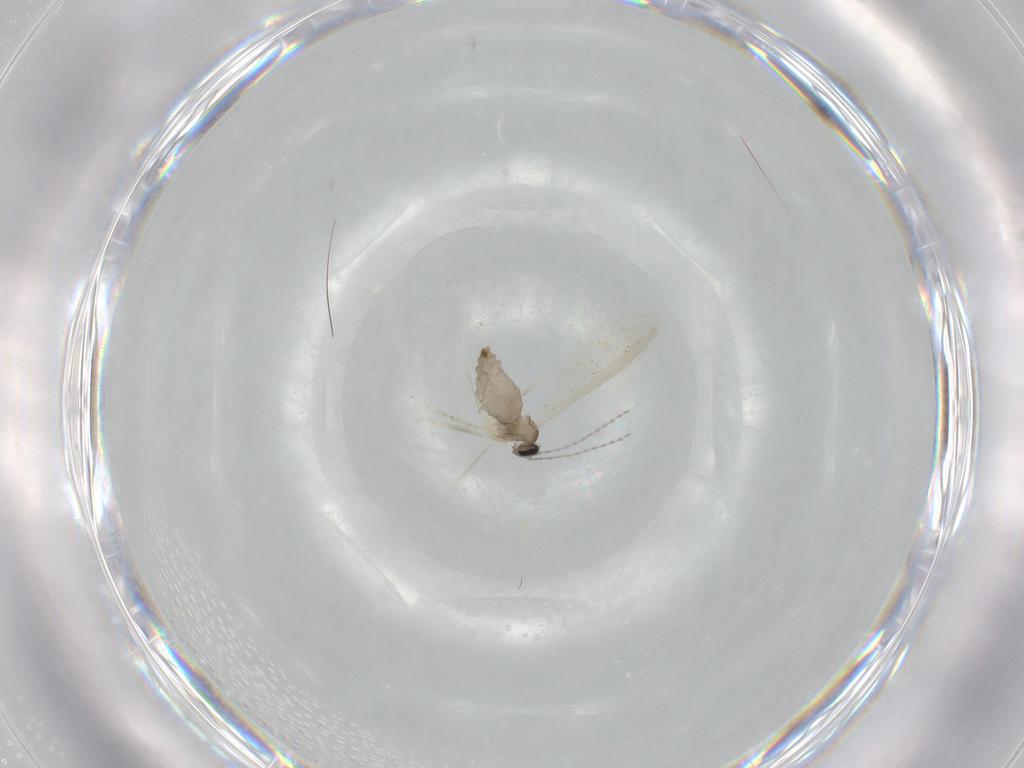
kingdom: Animalia
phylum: Arthropoda
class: Insecta
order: Diptera
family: Cecidomyiidae
